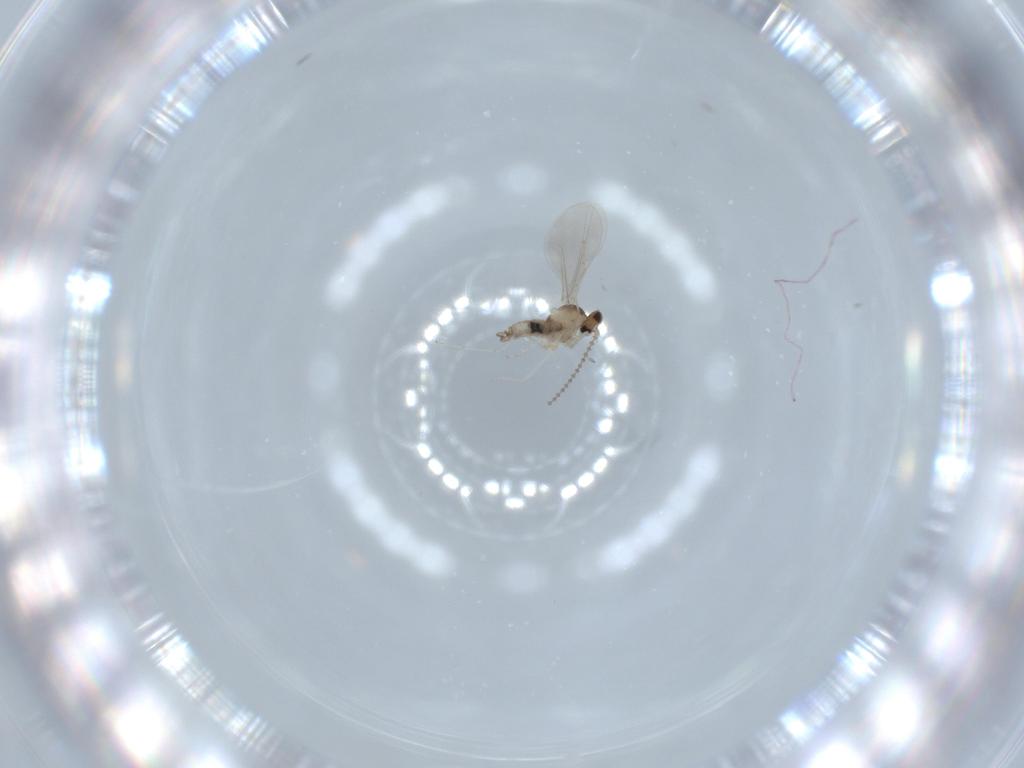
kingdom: Animalia
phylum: Arthropoda
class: Insecta
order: Diptera
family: Cecidomyiidae
